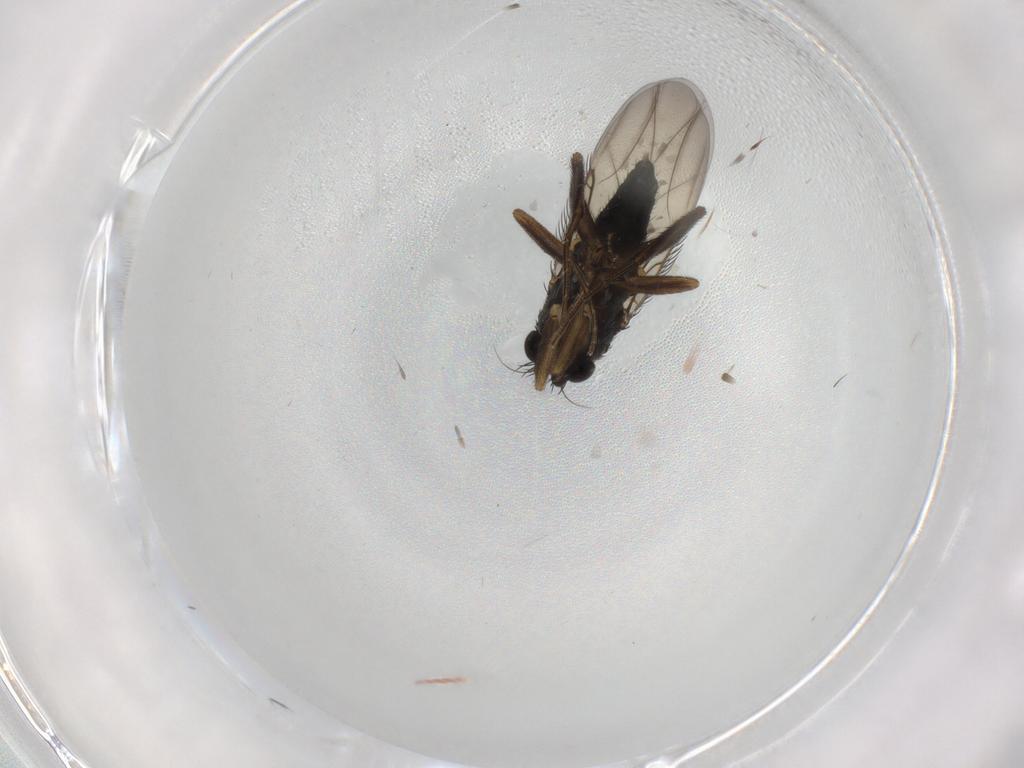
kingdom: Animalia
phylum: Arthropoda
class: Insecta
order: Diptera
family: Phoridae
